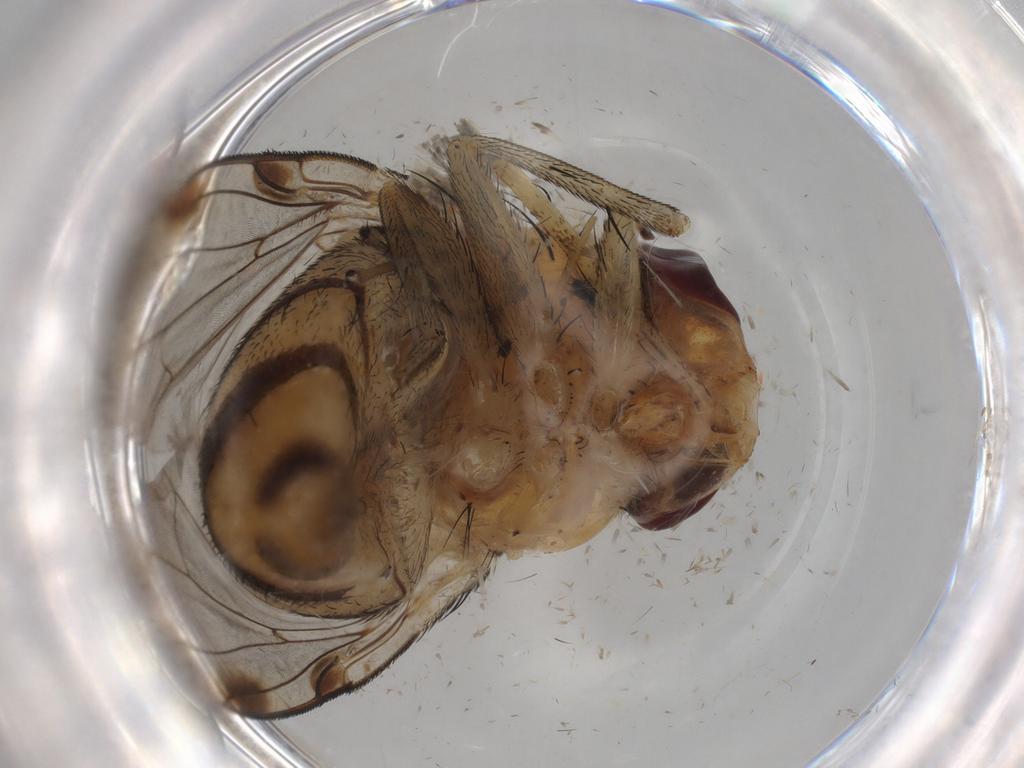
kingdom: Animalia
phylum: Arthropoda
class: Insecta
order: Diptera
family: Calliphoridae
